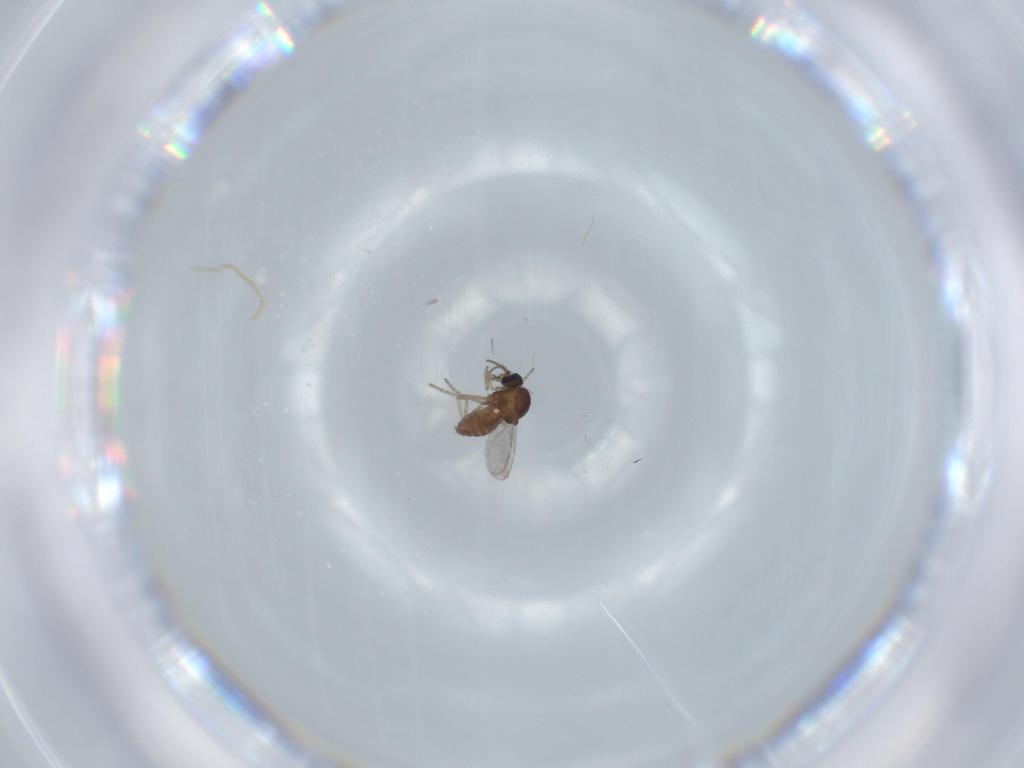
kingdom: Animalia
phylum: Arthropoda
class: Insecta
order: Diptera
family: Ceratopogonidae
